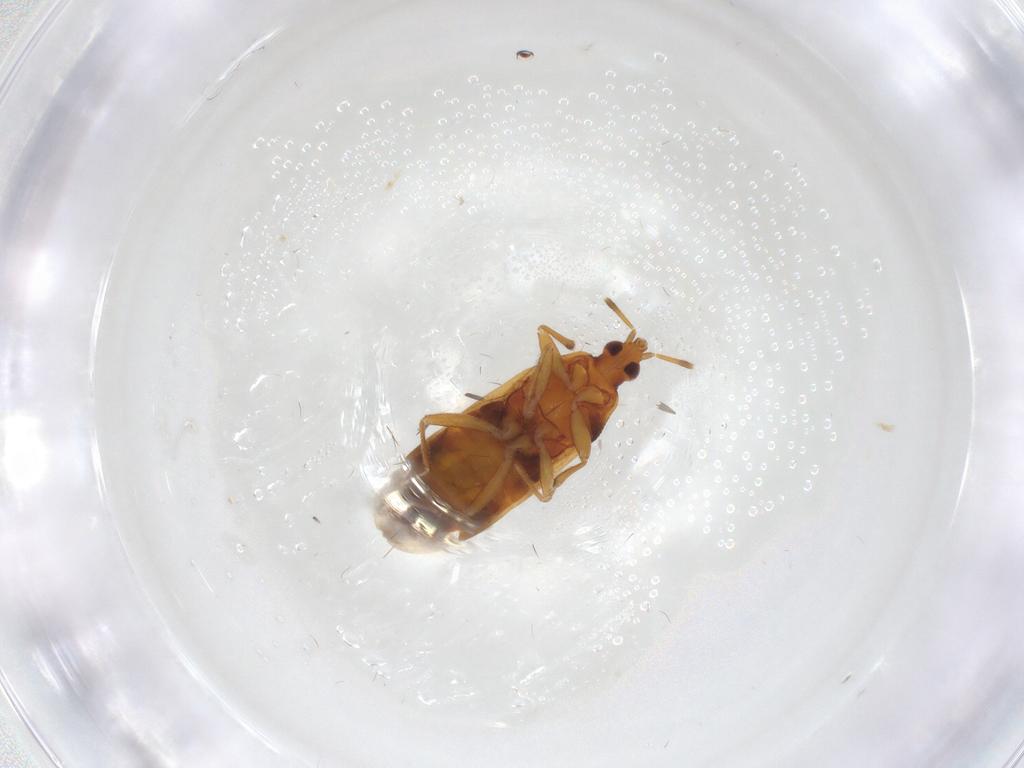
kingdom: Animalia
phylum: Arthropoda
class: Insecta
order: Hemiptera
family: Anthocoridae
